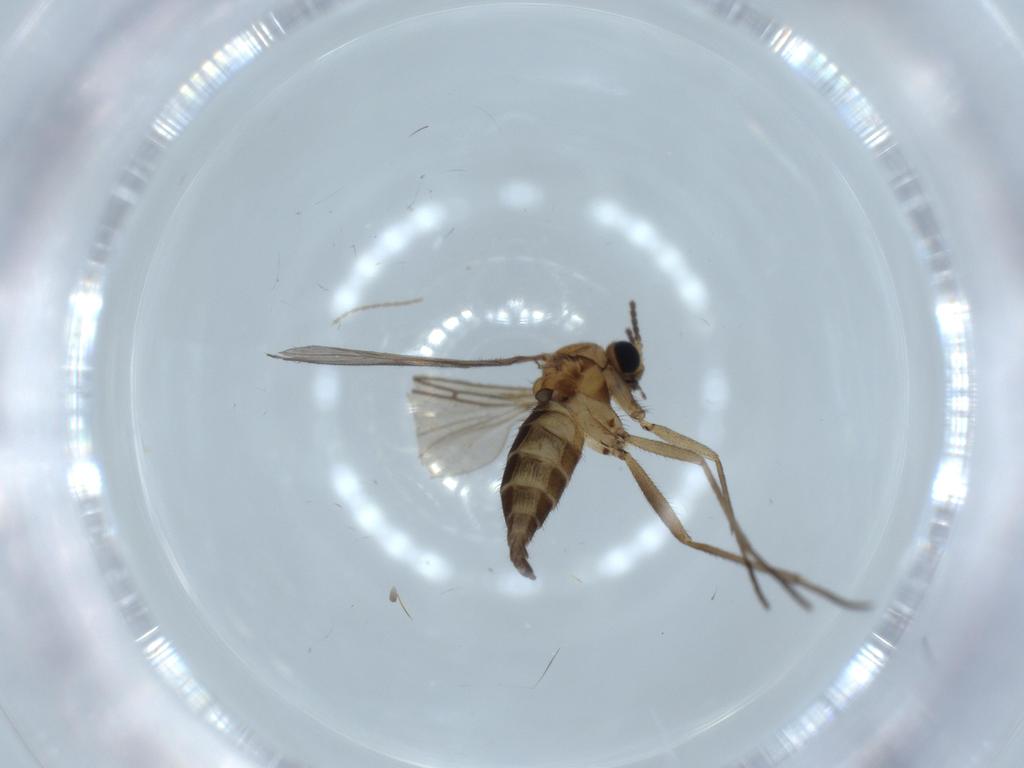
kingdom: Animalia
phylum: Arthropoda
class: Insecta
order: Diptera
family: Sciaridae
